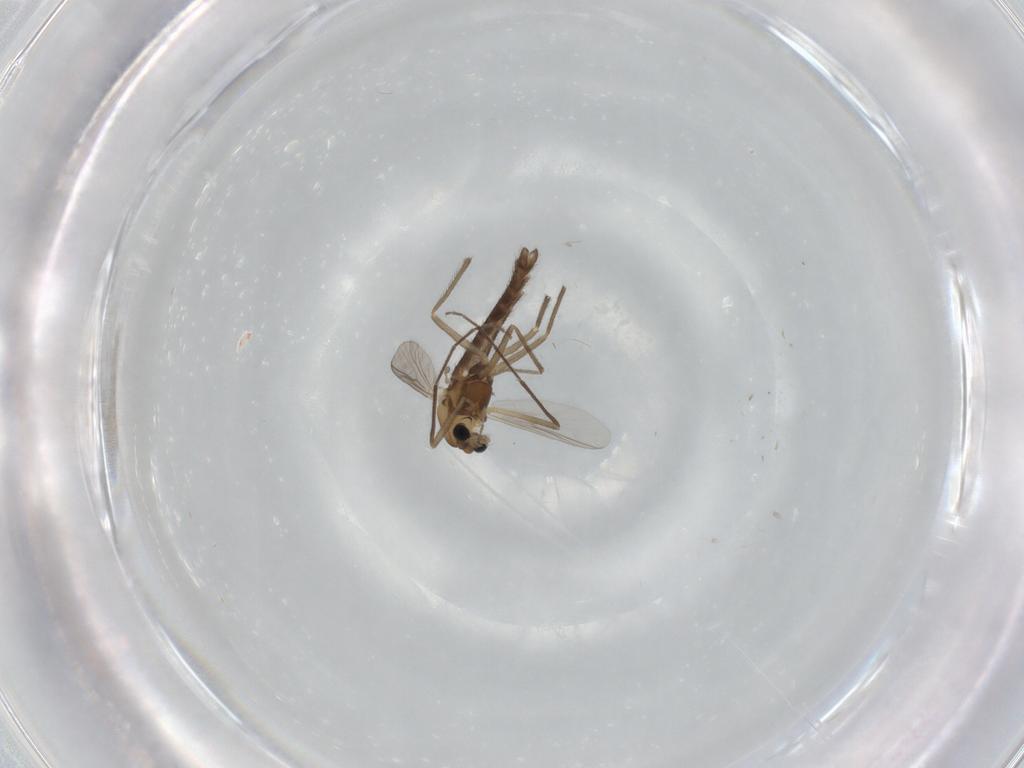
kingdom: Animalia
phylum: Arthropoda
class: Insecta
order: Diptera
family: Chironomidae
